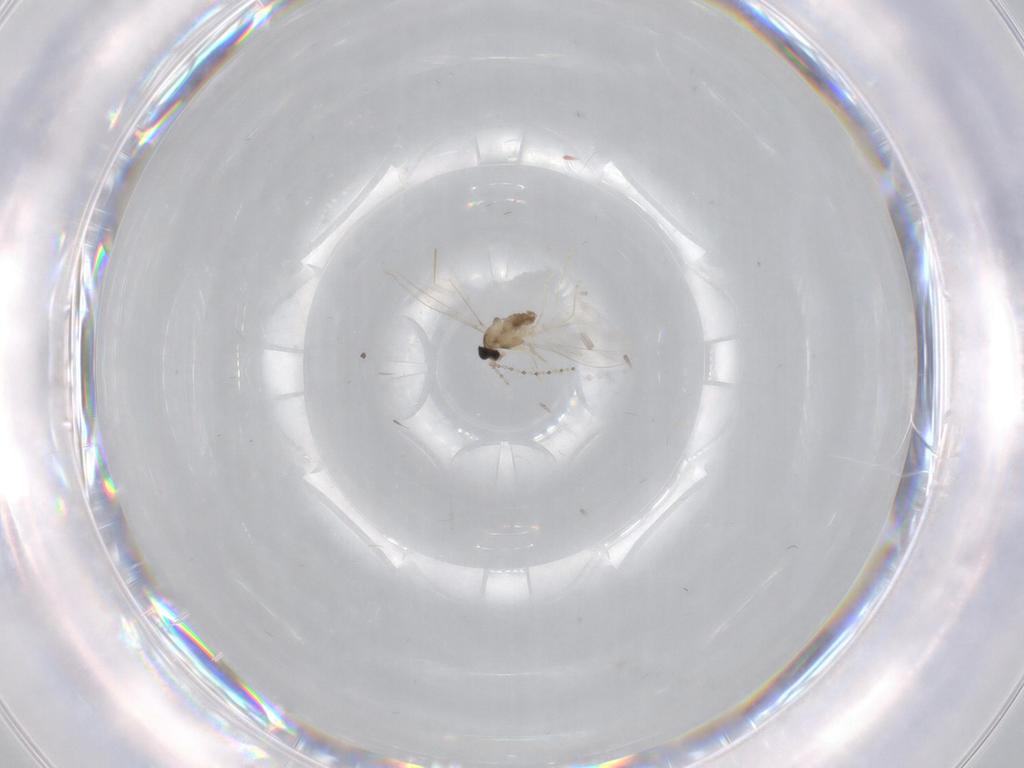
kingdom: Animalia
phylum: Arthropoda
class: Insecta
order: Diptera
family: Cecidomyiidae
